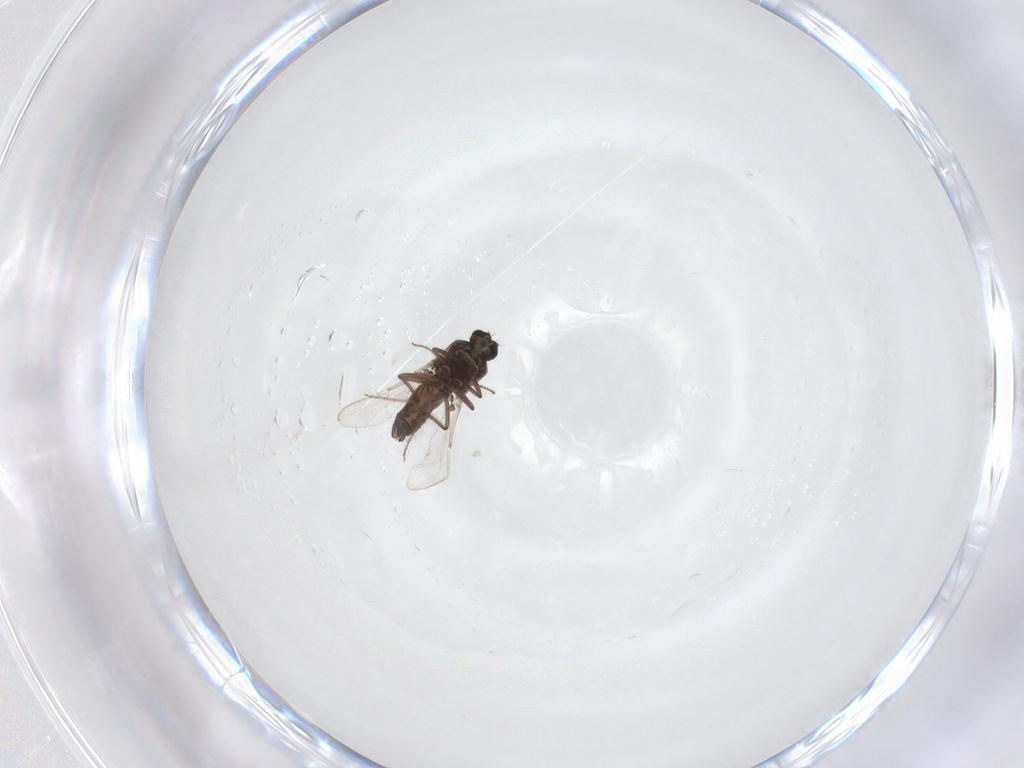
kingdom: Animalia
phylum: Arthropoda
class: Insecta
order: Diptera
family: Ceratopogonidae
